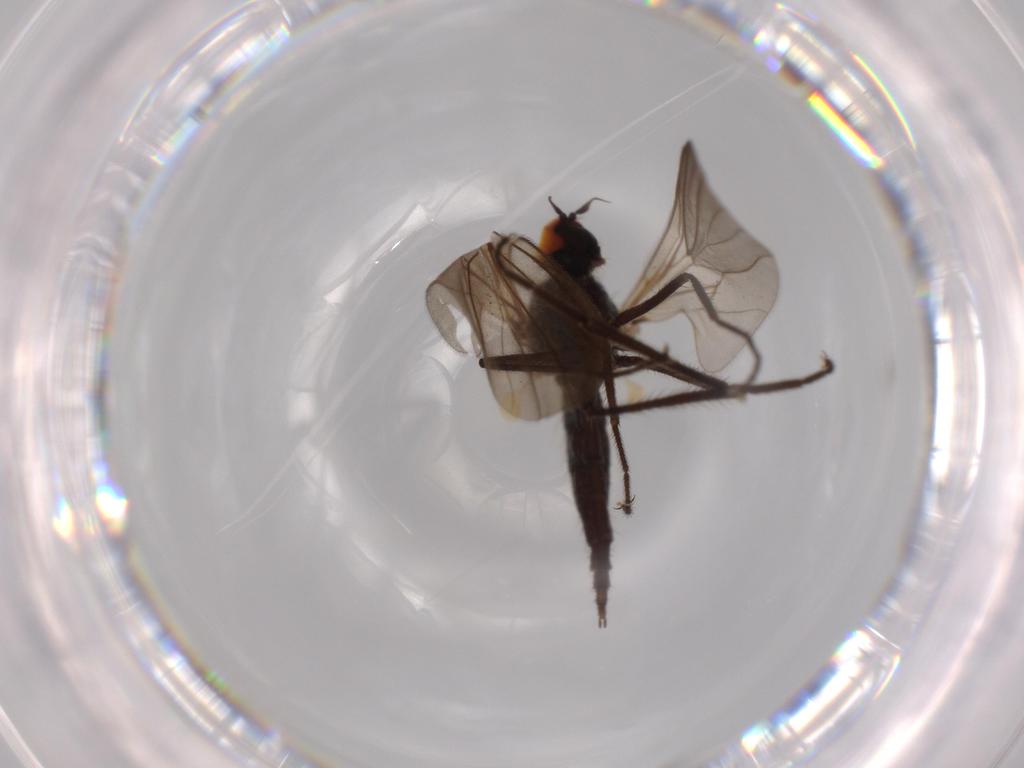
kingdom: Animalia
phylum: Arthropoda
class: Insecta
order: Diptera
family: Hybotidae
